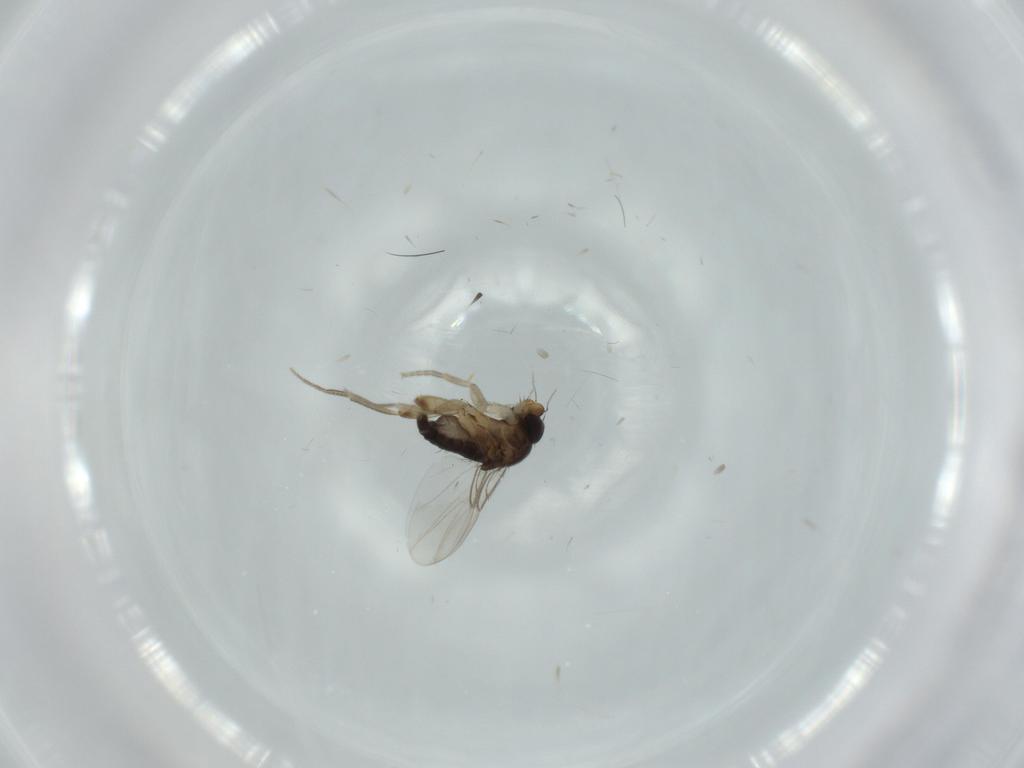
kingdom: Animalia
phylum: Arthropoda
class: Insecta
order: Diptera
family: Phoridae
